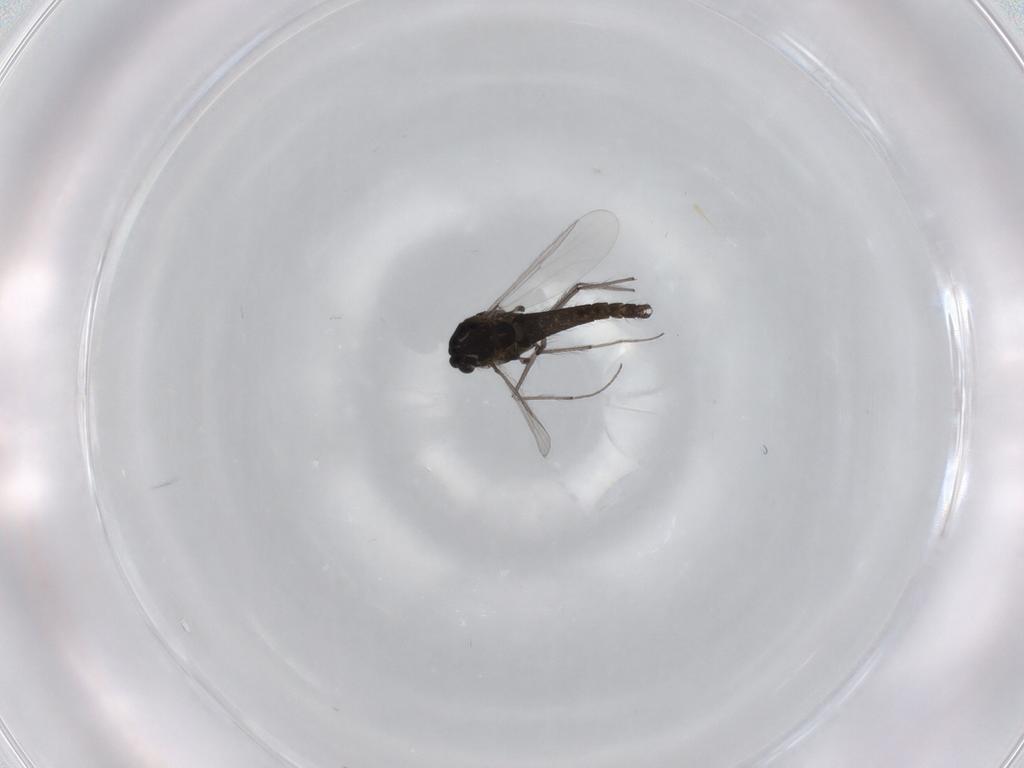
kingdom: Animalia
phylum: Arthropoda
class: Insecta
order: Diptera
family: Chironomidae
